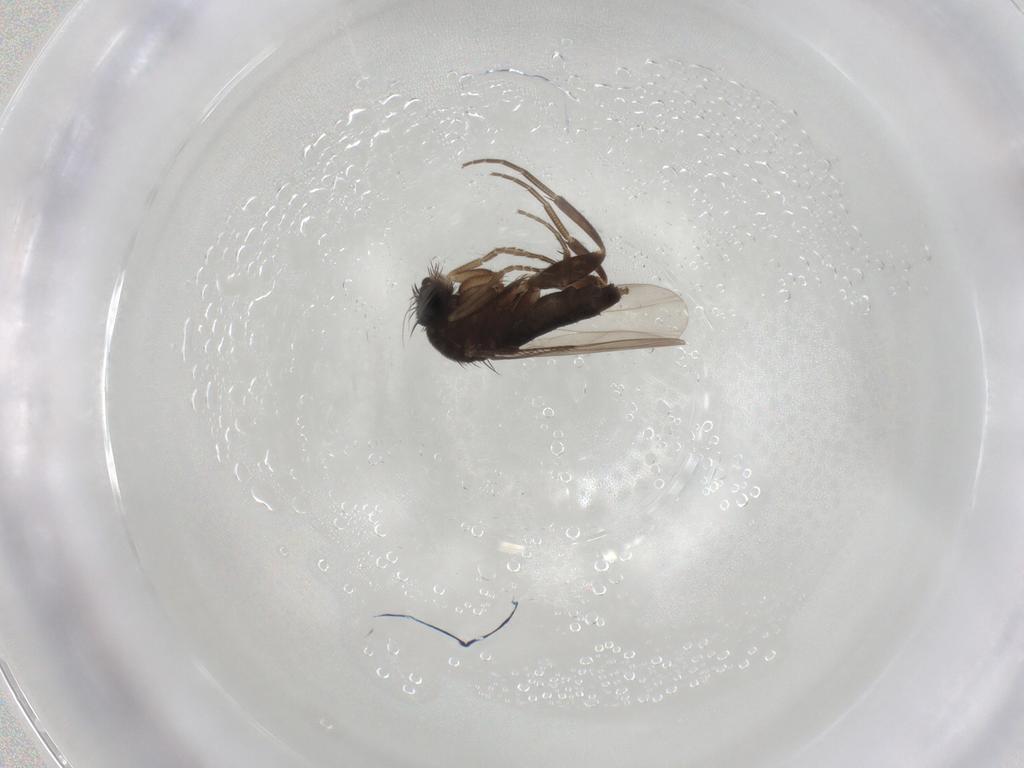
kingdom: Animalia
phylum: Arthropoda
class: Insecta
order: Diptera
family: Phoridae
